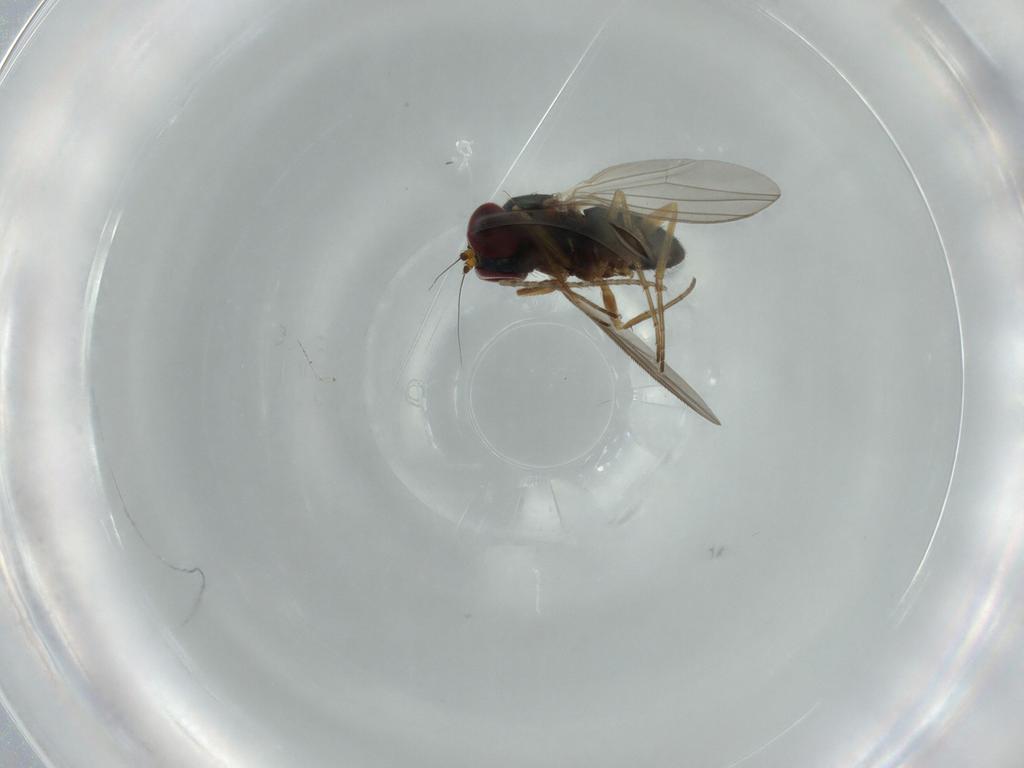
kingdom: Animalia
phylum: Arthropoda
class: Insecta
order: Diptera
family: Dolichopodidae
